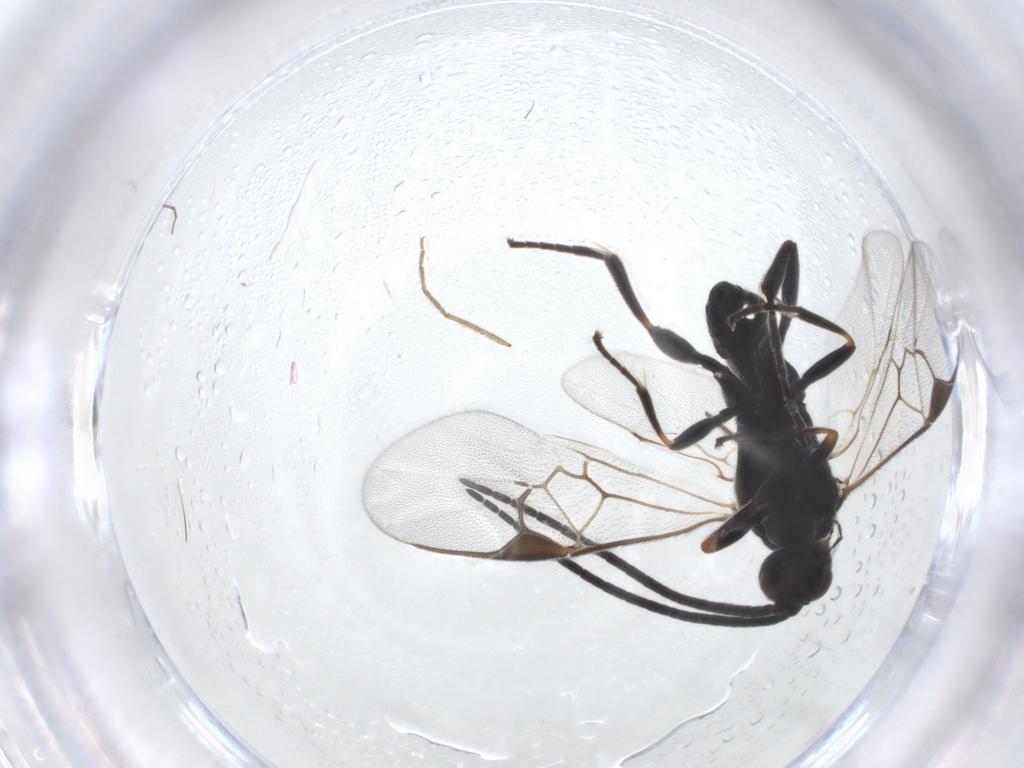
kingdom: Animalia
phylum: Arthropoda
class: Insecta
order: Hymenoptera
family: Braconidae
